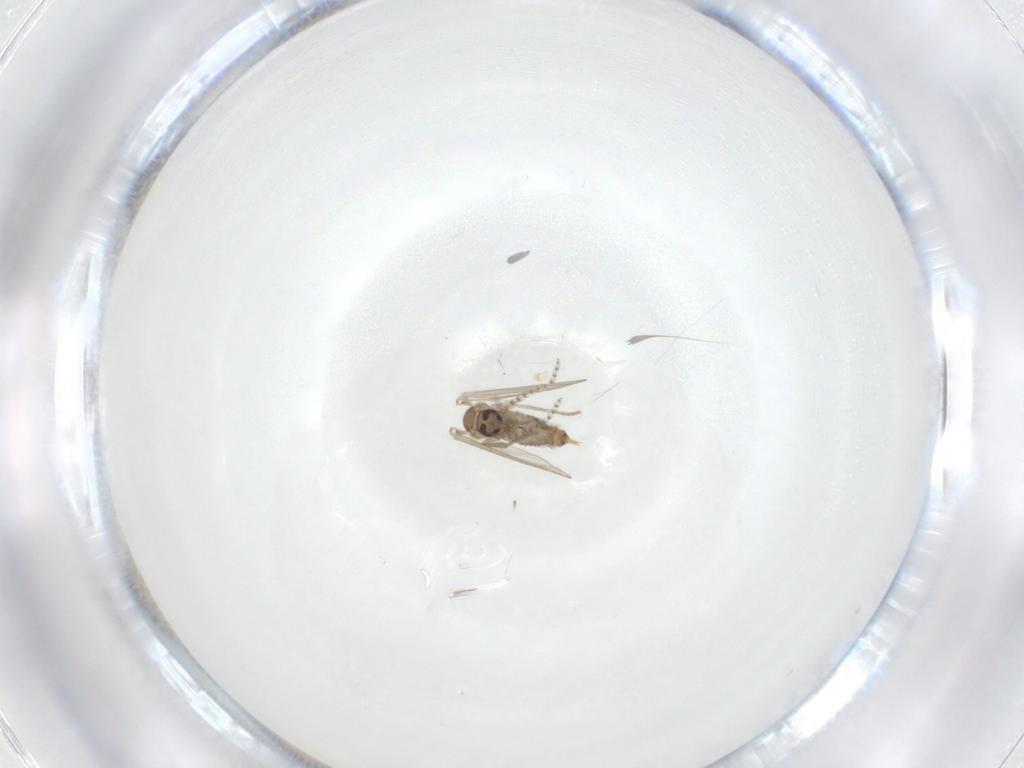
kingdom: Animalia
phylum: Arthropoda
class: Insecta
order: Diptera
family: Psychodidae
